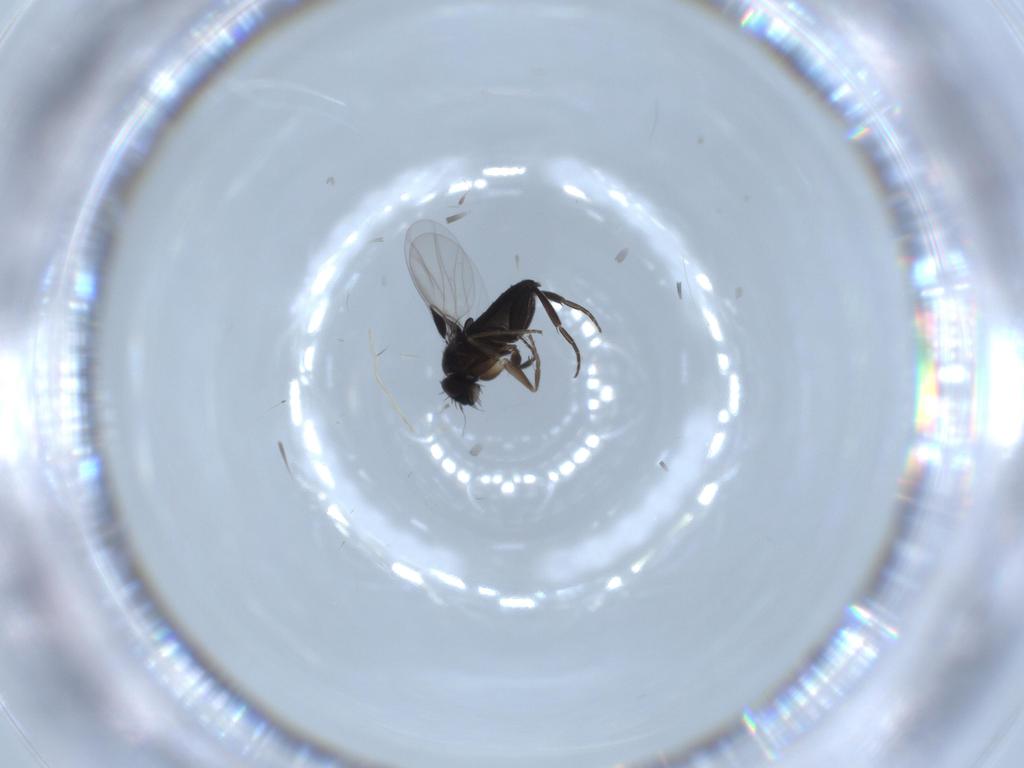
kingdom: Animalia
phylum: Arthropoda
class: Insecta
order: Diptera
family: Phoridae
